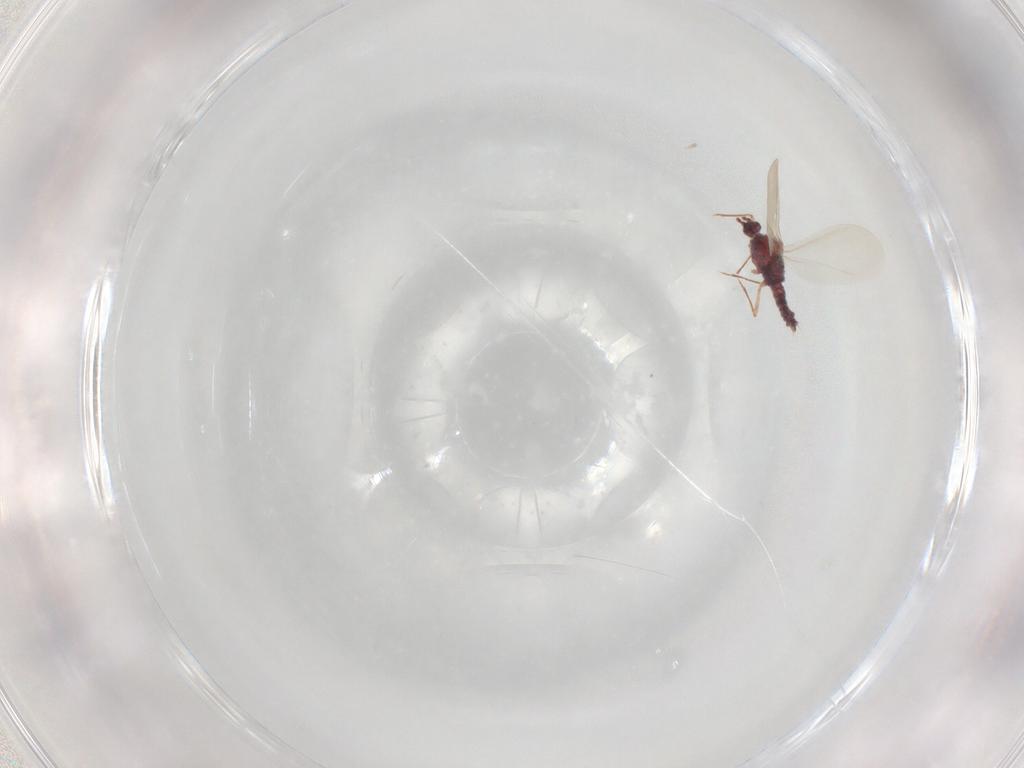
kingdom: Animalia
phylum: Arthropoda
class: Insecta
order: Hemiptera
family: Pseudococcidae
